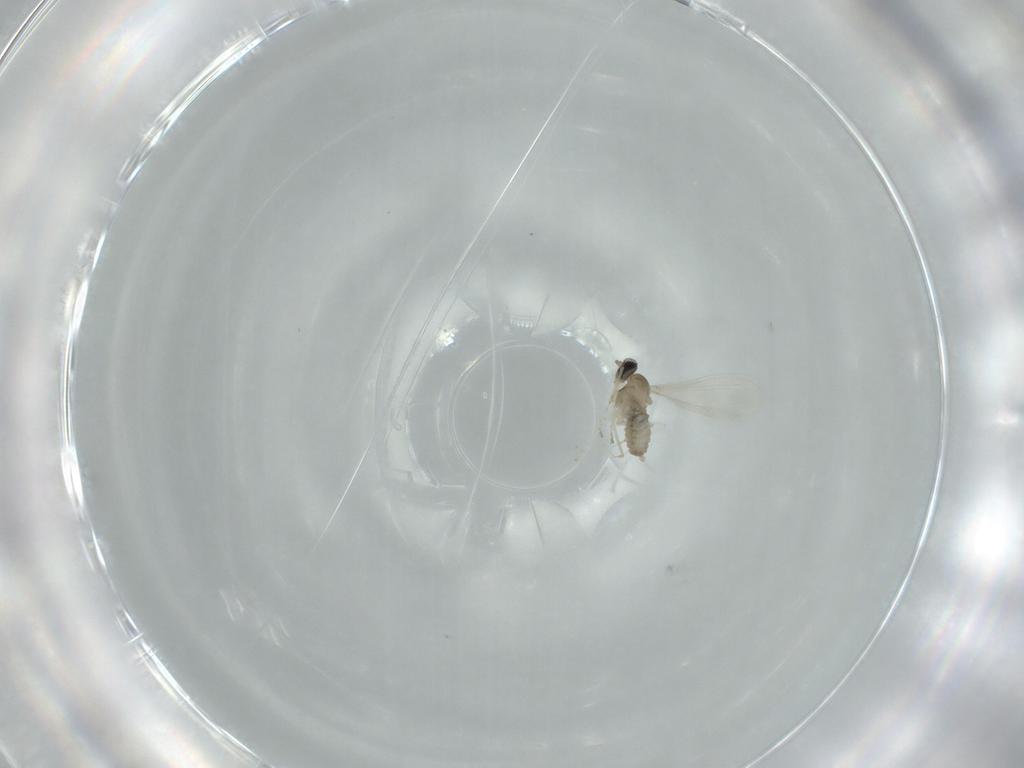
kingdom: Animalia
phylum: Arthropoda
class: Insecta
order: Diptera
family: Cecidomyiidae
